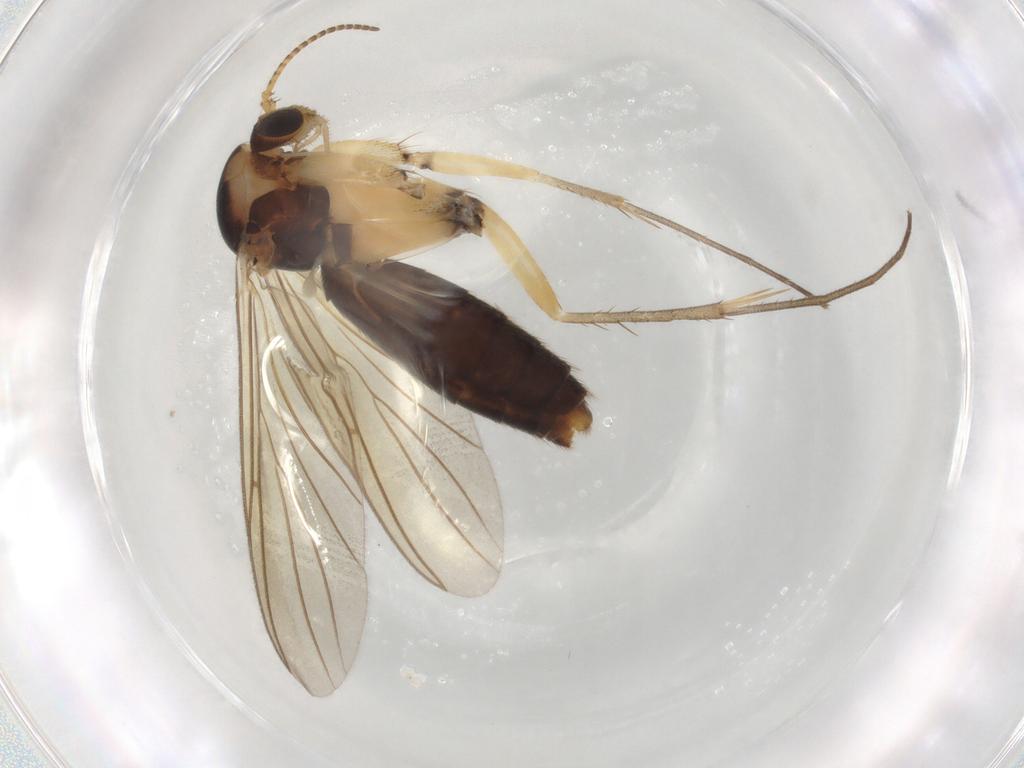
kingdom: Animalia
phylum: Arthropoda
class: Insecta
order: Diptera
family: Mycetophilidae
